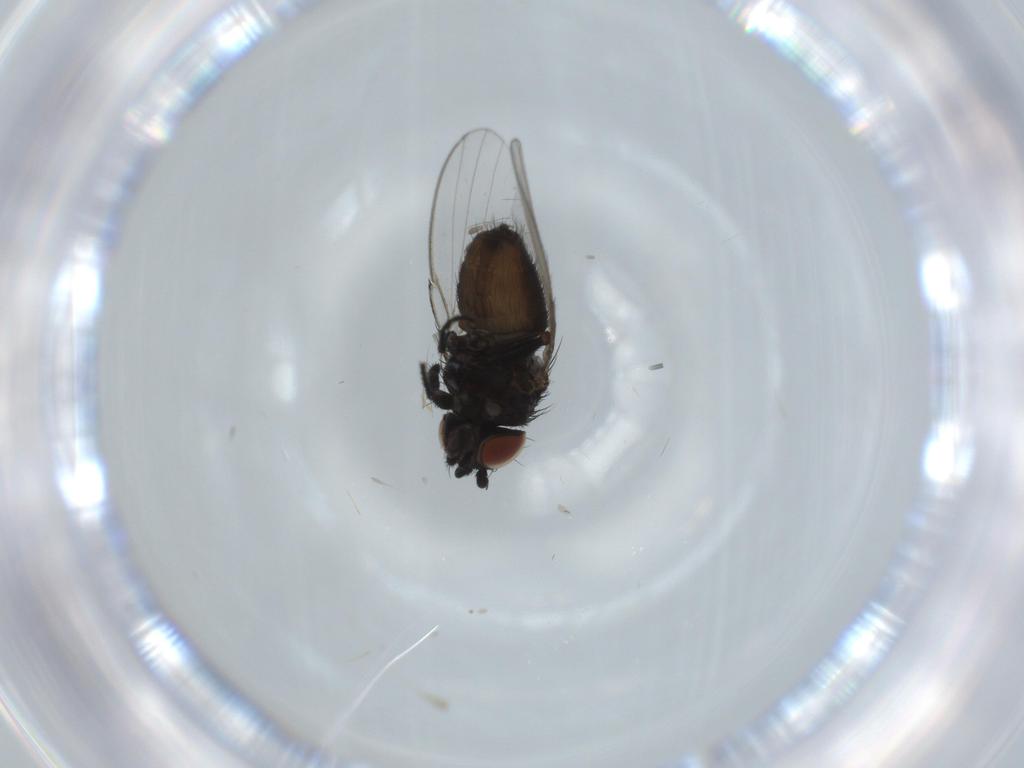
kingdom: Animalia
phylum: Arthropoda
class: Insecta
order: Diptera
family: Milichiidae
